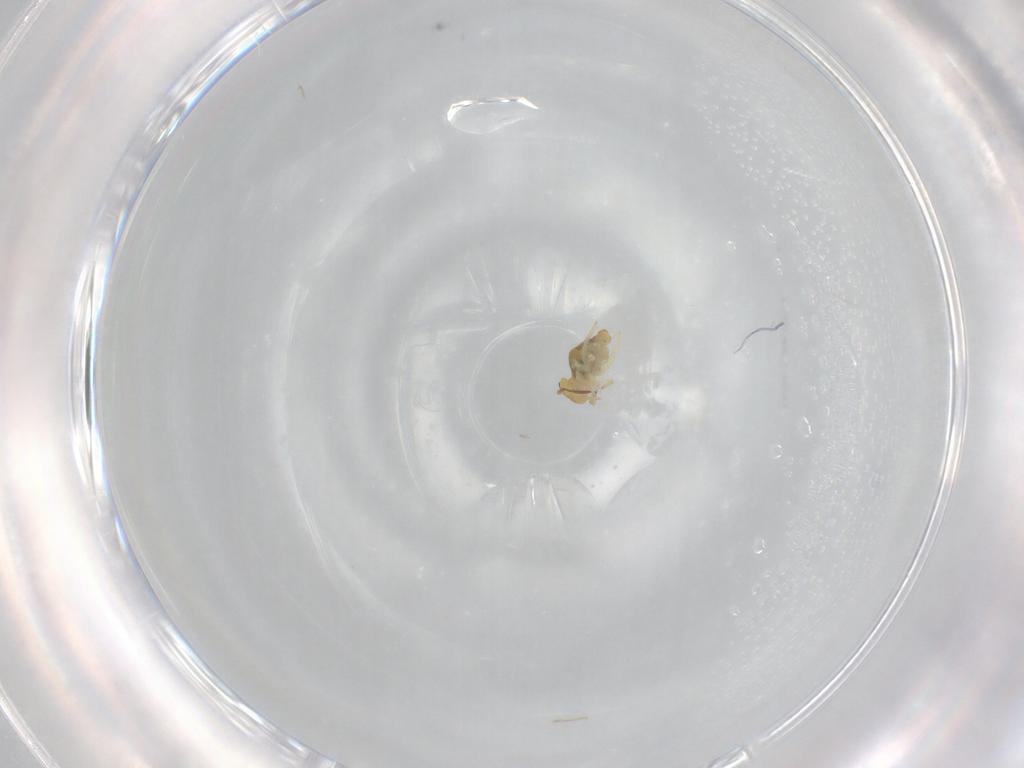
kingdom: Animalia
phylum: Arthropoda
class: Collembola
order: Symphypleona
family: Bourletiellidae
